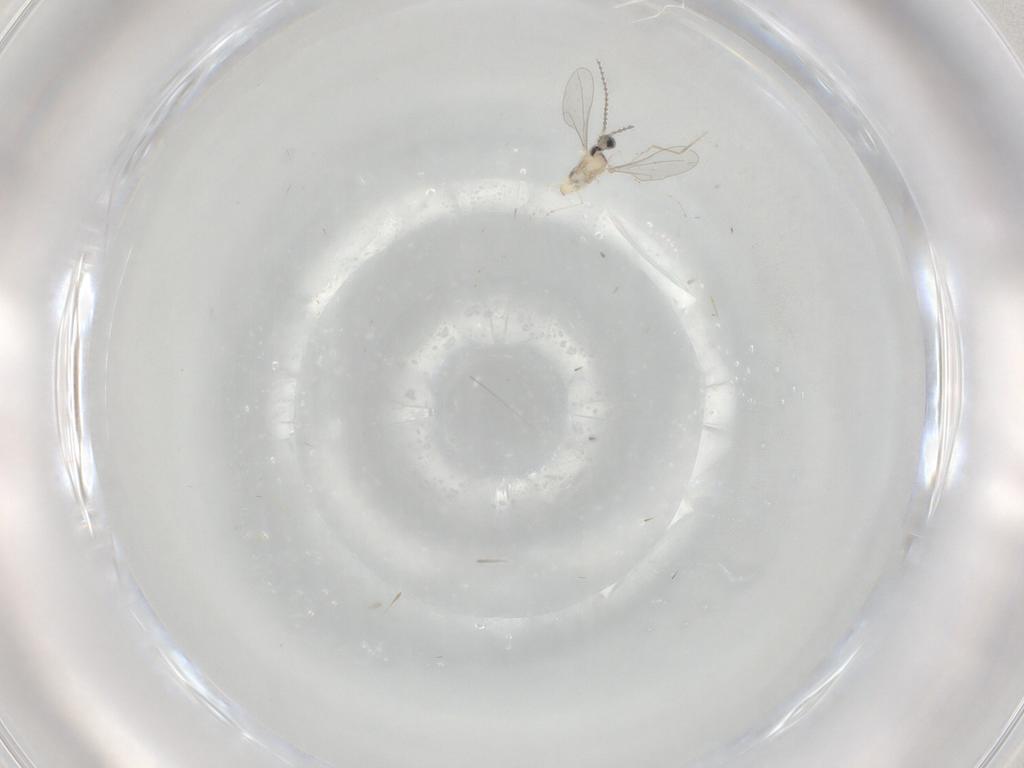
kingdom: Animalia
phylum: Arthropoda
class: Insecta
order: Diptera
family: Cecidomyiidae
